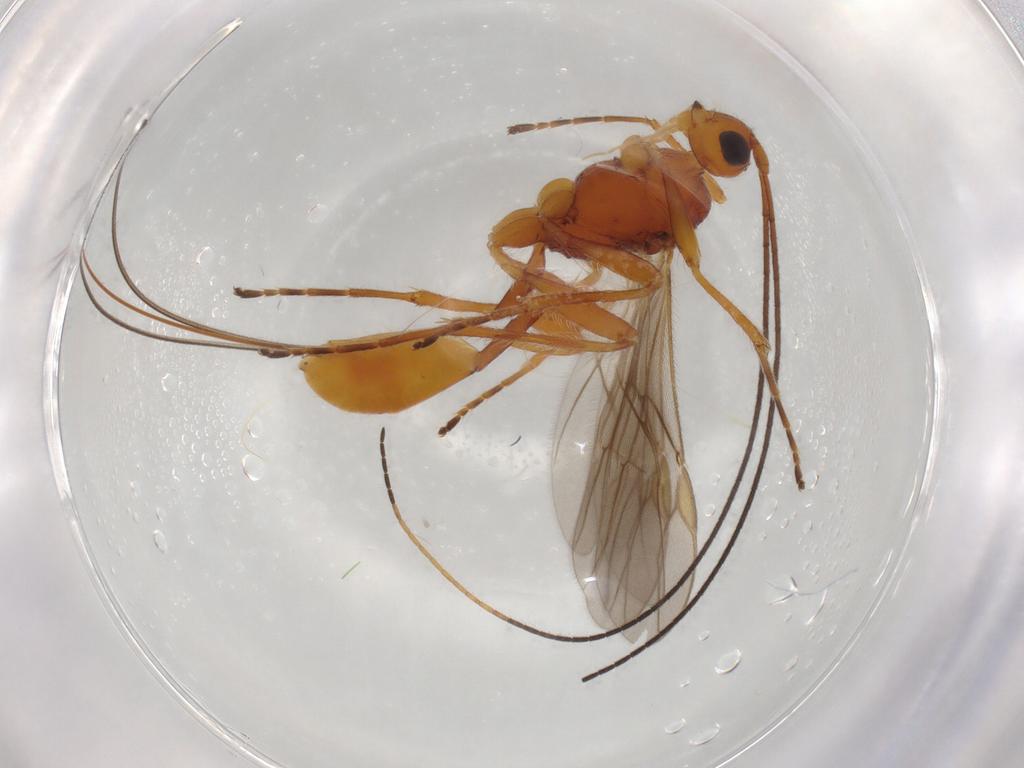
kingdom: Animalia
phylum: Arthropoda
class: Insecta
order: Hymenoptera
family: Braconidae
